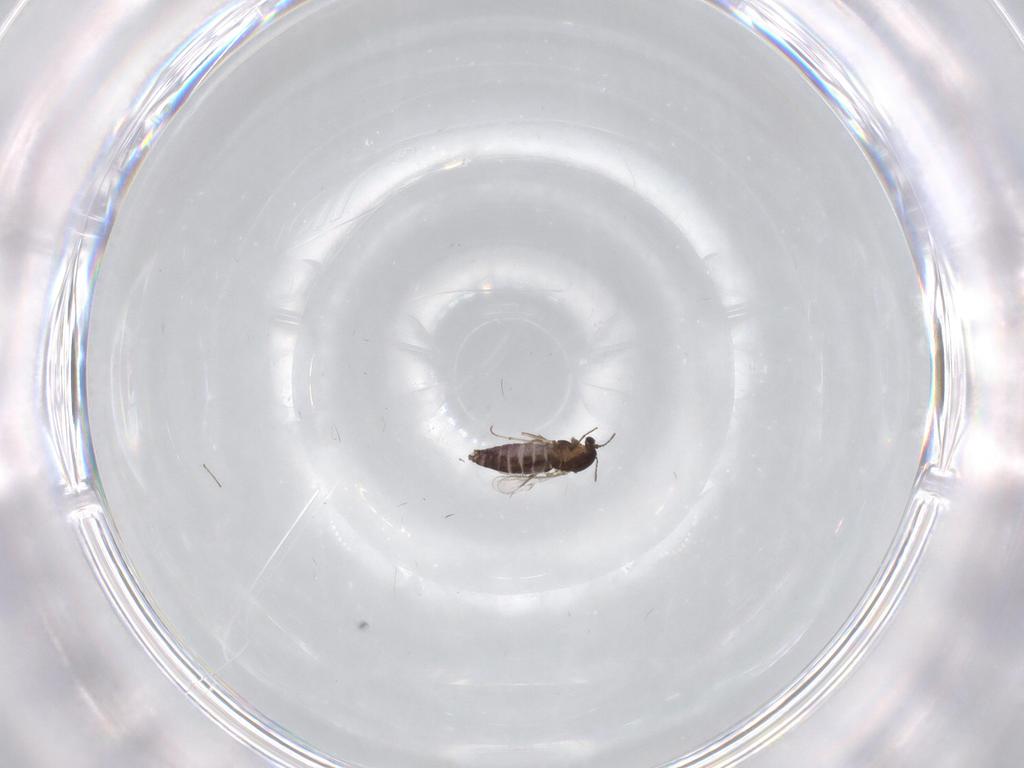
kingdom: Animalia
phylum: Arthropoda
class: Insecta
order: Diptera
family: Chironomidae
